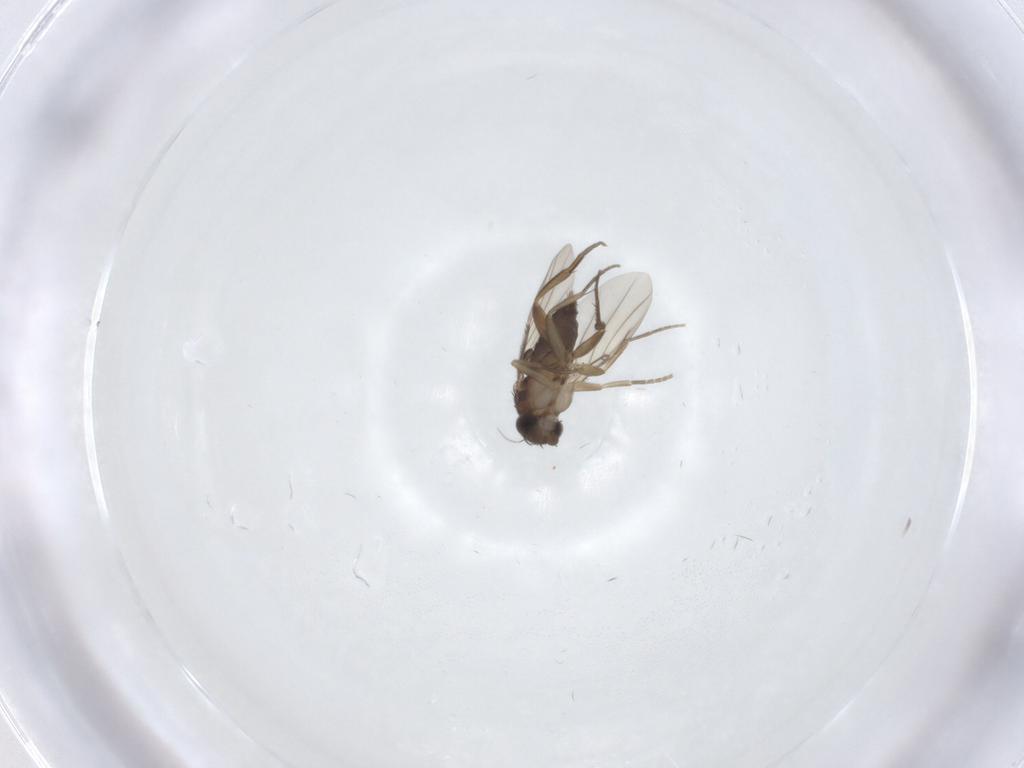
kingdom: Animalia
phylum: Arthropoda
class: Insecta
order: Diptera
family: Phoridae
